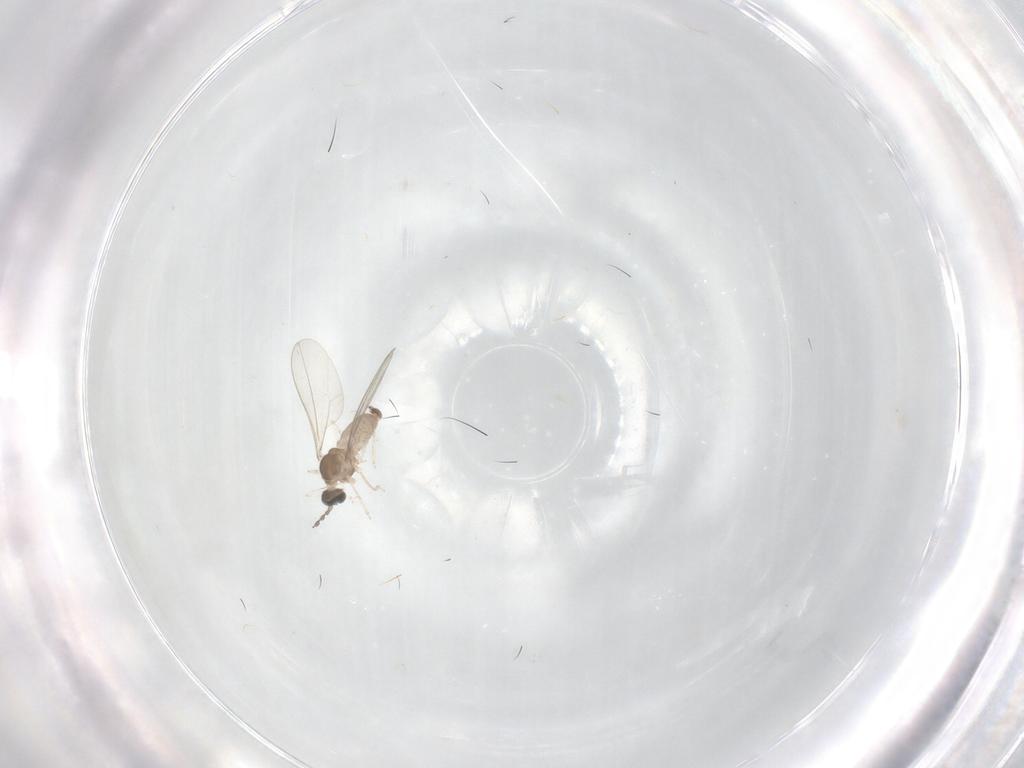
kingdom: Animalia
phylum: Arthropoda
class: Insecta
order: Diptera
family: Cecidomyiidae
